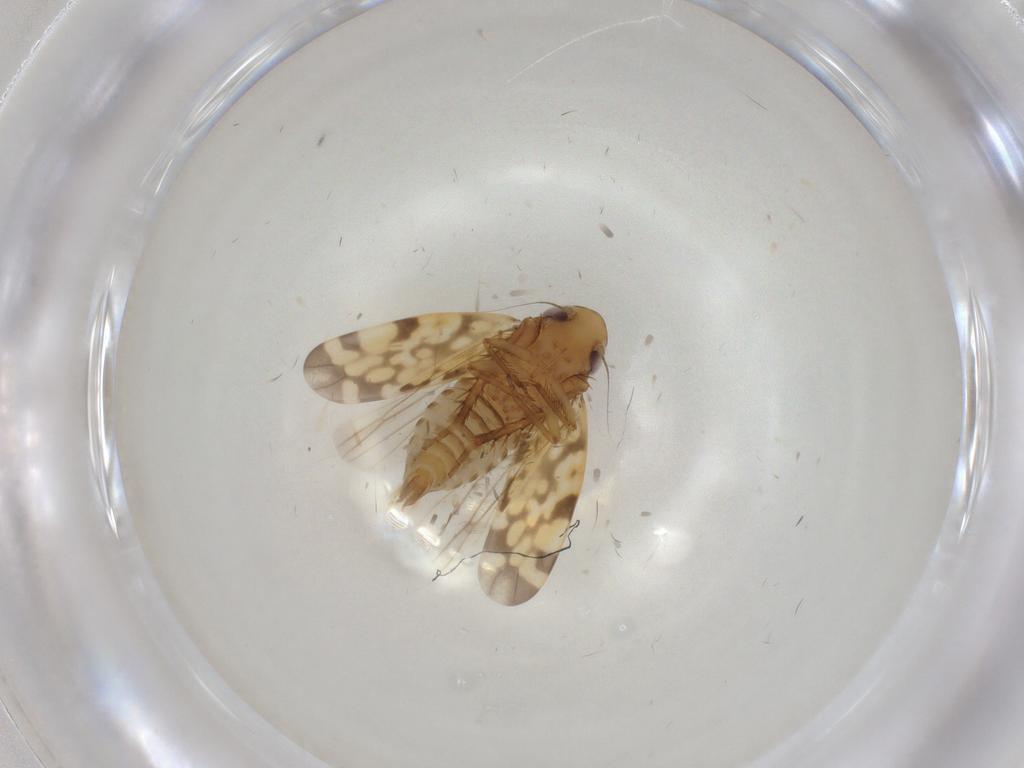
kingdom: Animalia
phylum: Arthropoda
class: Insecta
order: Hemiptera
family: Cicadellidae
